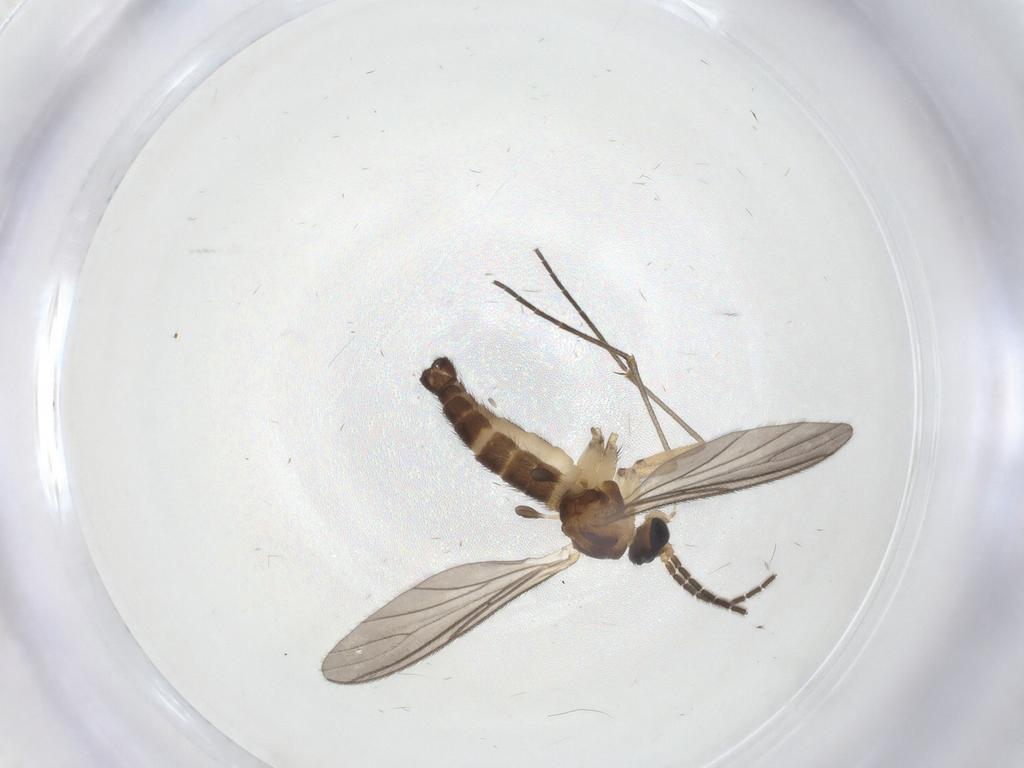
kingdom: Animalia
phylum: Arthropoda
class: Insecta
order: Diptera
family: Sciaridae
